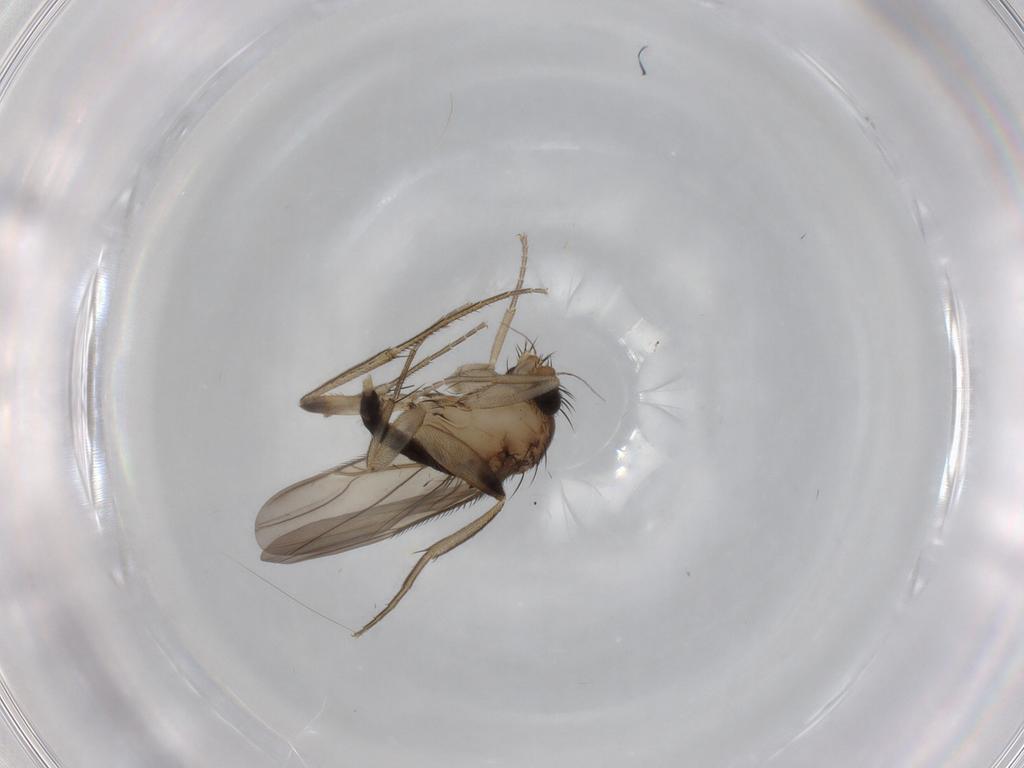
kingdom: Animalia
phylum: Arthropoda
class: Insecta
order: Diptera
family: Phoridae
